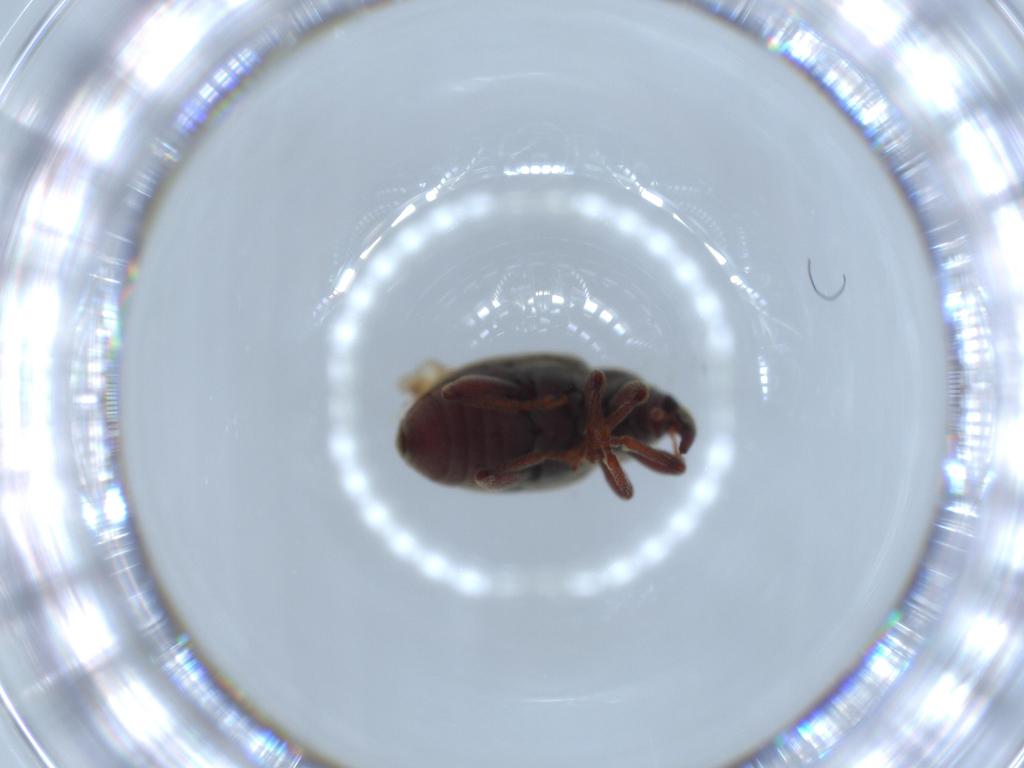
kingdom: Animalia
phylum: Arthropoda
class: Insecta
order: Coleoptera
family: Curculionidae
